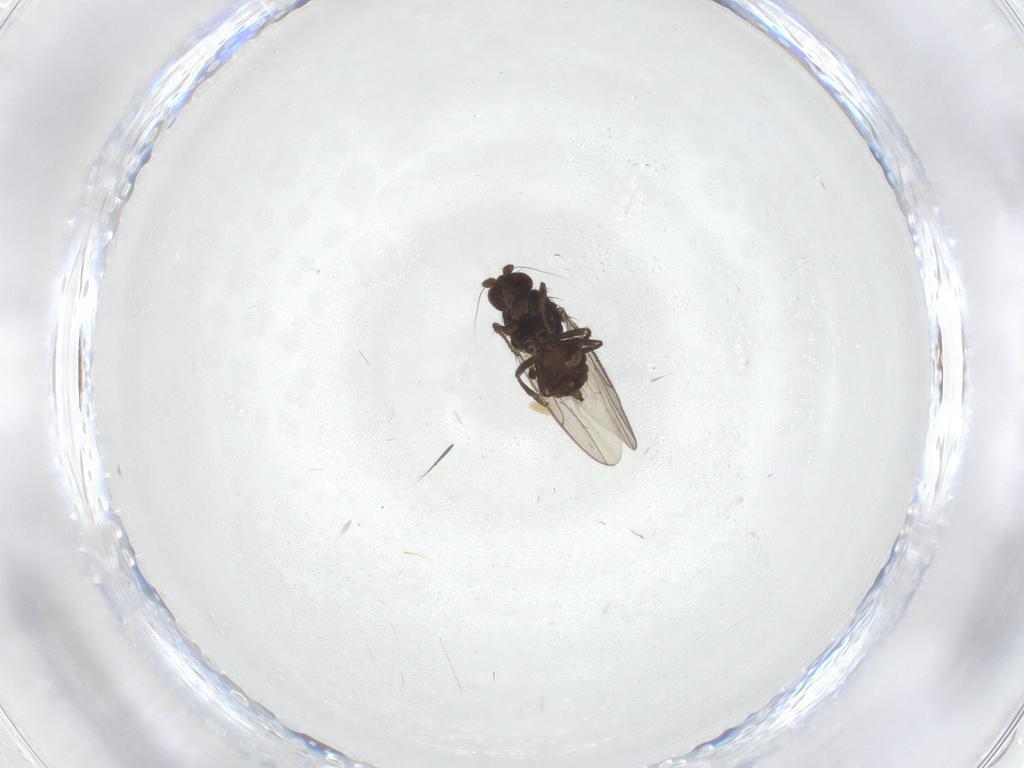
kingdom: Animalia
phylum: Arthropoda
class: Insecta
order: Diptera
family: Sphaeroceridae
